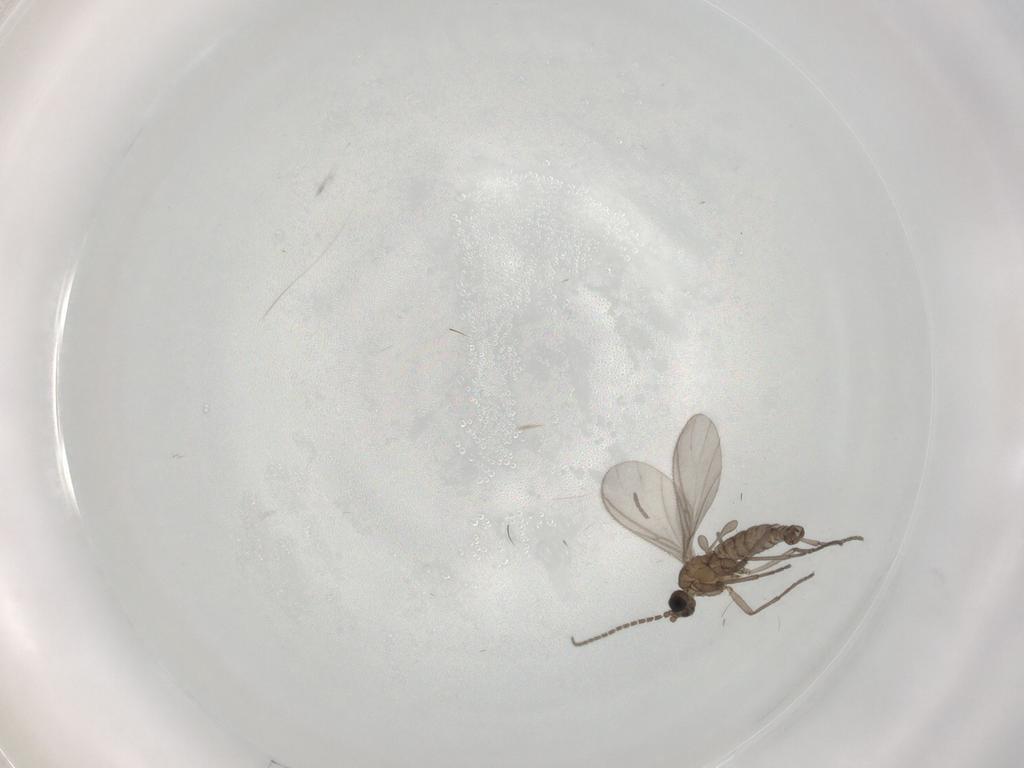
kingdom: Animalia
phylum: Arthropoda
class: Insecta
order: Diptera
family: Sciaridae
